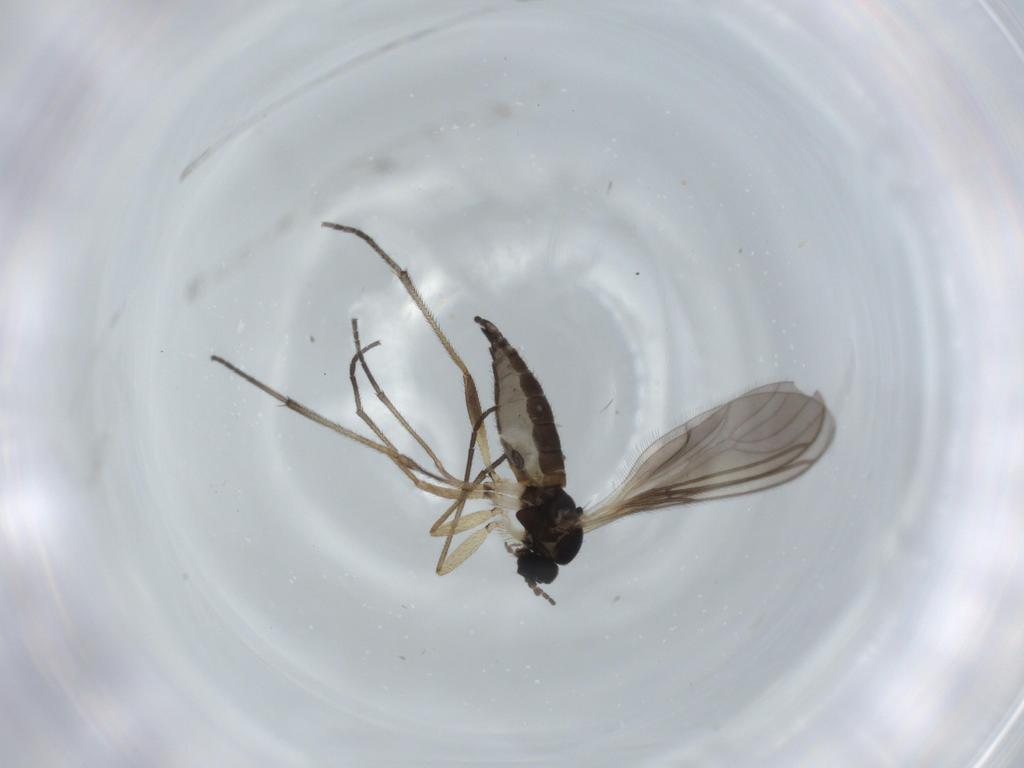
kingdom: Animalia
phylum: Arthropoda
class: Insecta
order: Diptera
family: Sciaridae
